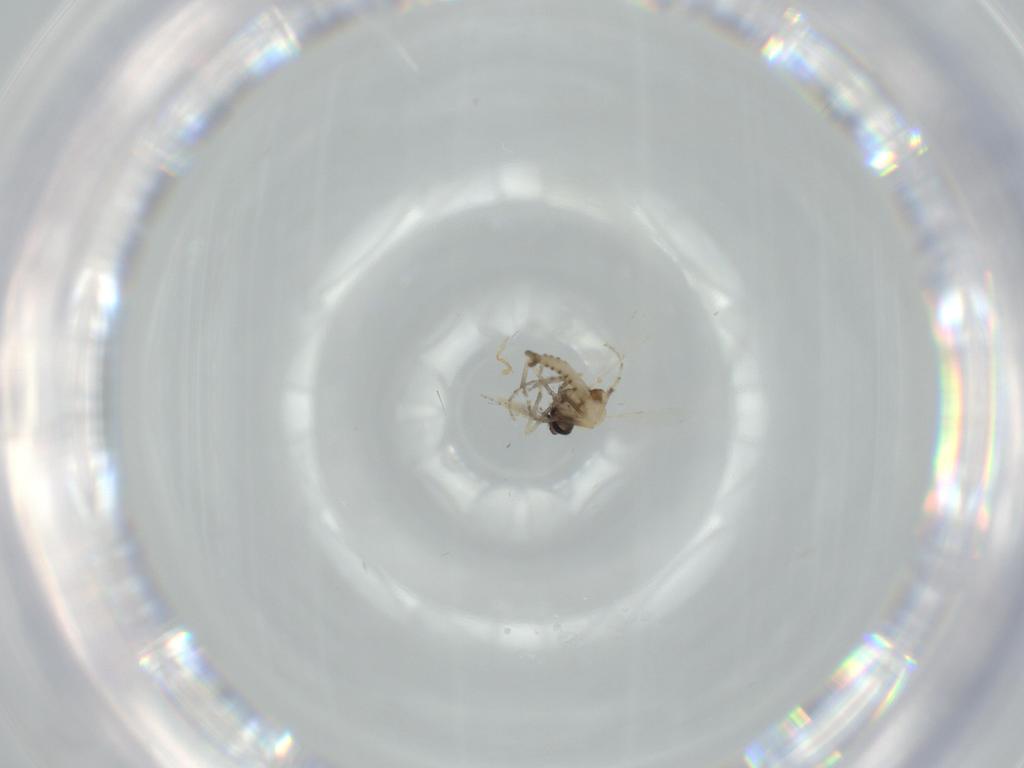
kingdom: Animalia
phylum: Arthropoda
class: Insecta
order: Diptera
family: Ceratopogonidae
